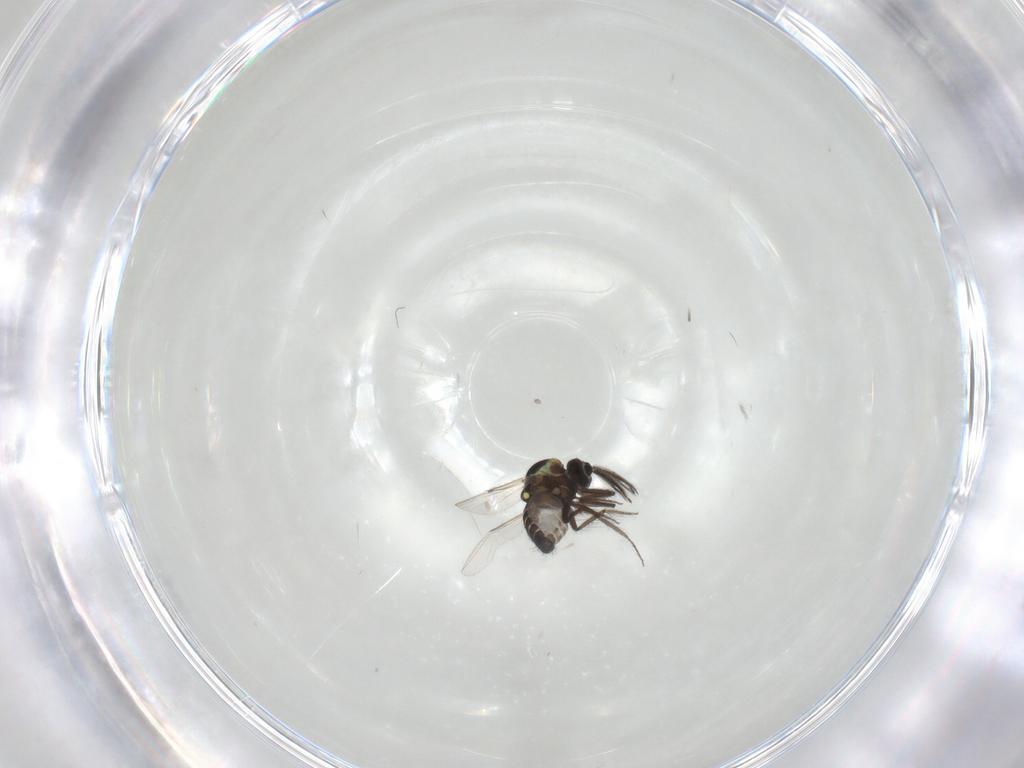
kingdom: Animalia
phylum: Arthropoda
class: Insecta
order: Diptera
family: Ceratopogonidae
